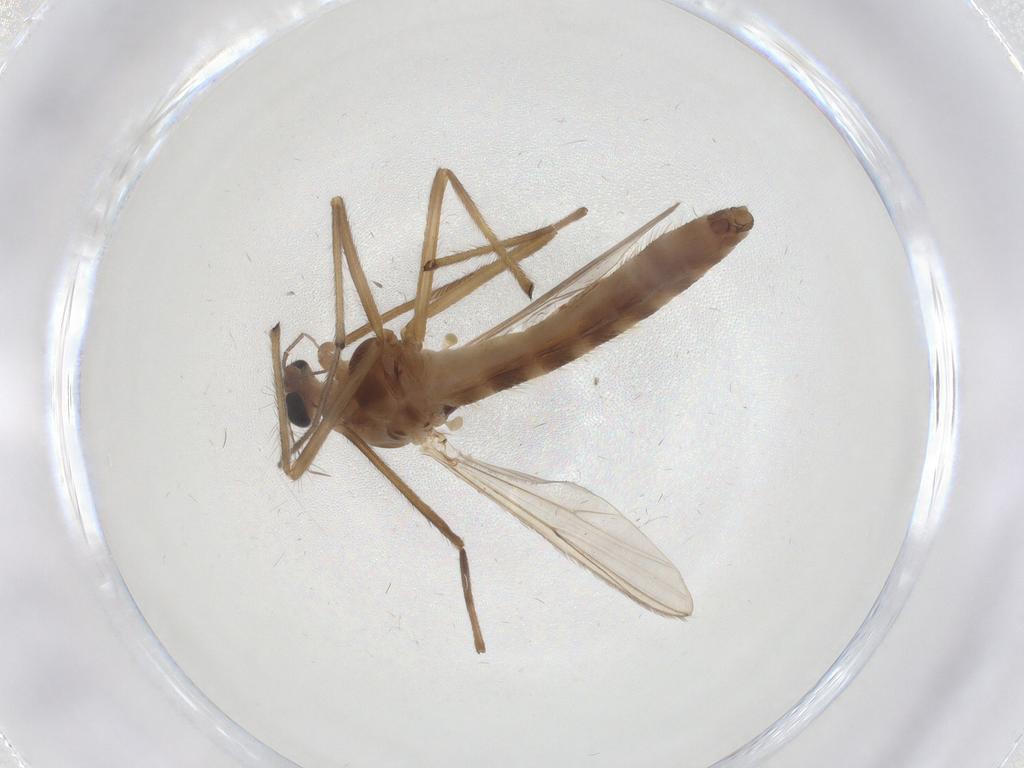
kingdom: Animalia
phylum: Arthropoda
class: Insecta
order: Diptera
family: Chironomidae
